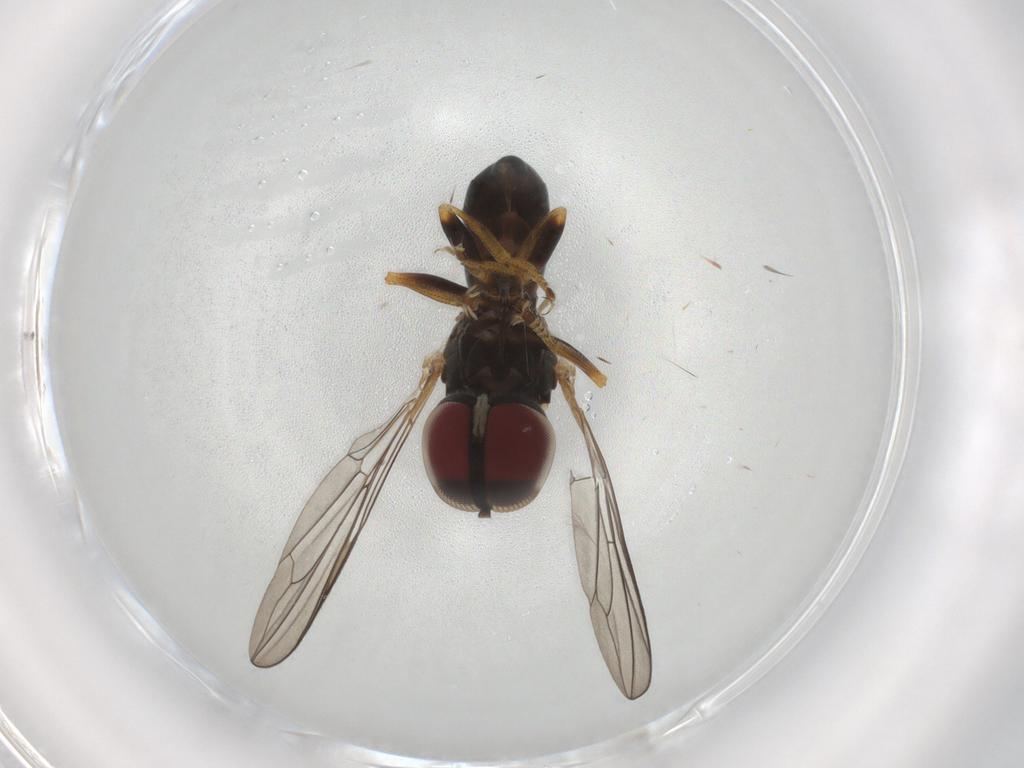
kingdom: Animalia
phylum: Arthropoda
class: Insecta
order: Diptera
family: Pipunculidae
